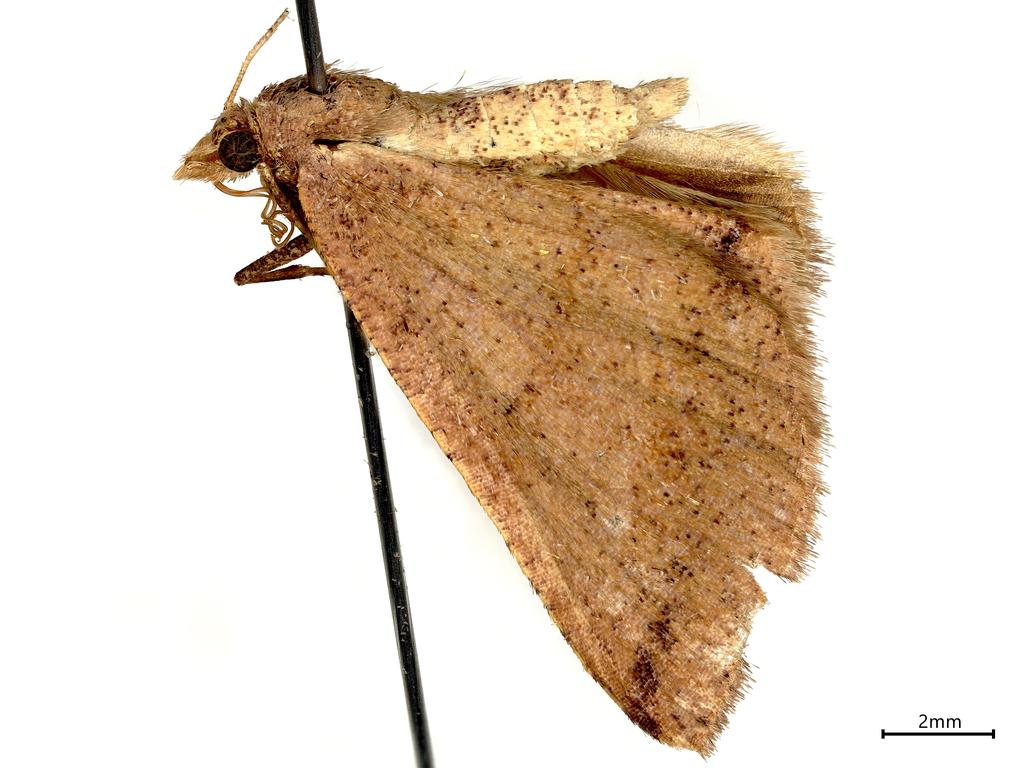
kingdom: Animalia
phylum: Arthropoda
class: Insecta
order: Lepidoptera
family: Geometridae
